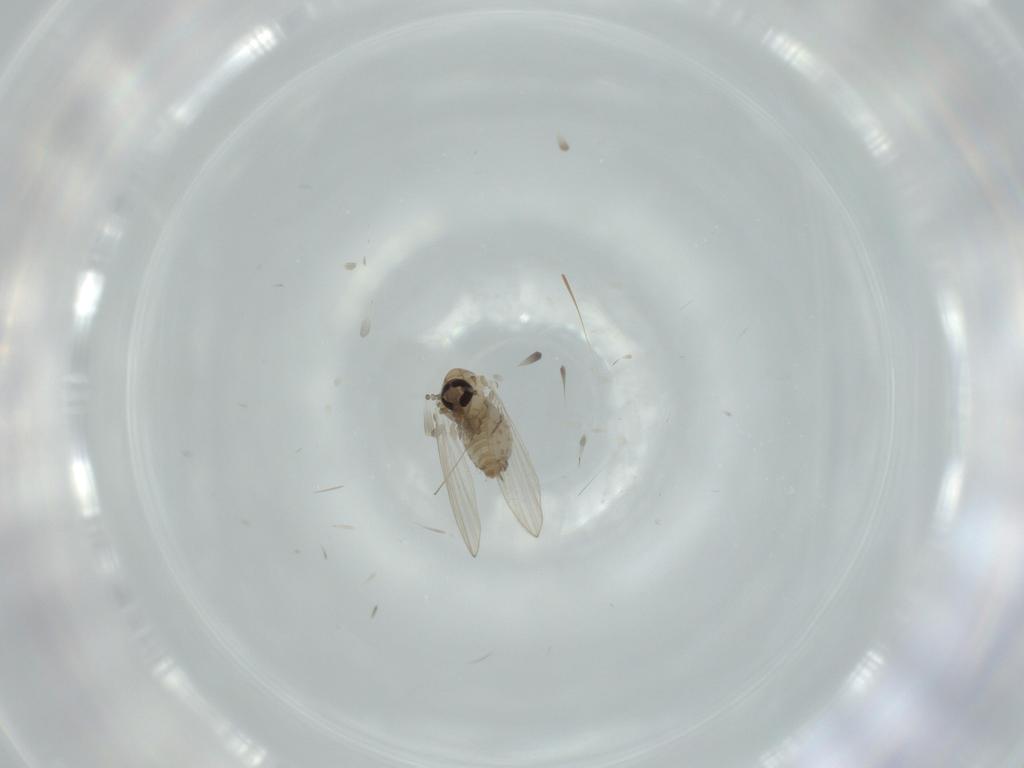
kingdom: Animalia
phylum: Arthropoda
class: Insecta
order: Diptera
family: Psychodidae
